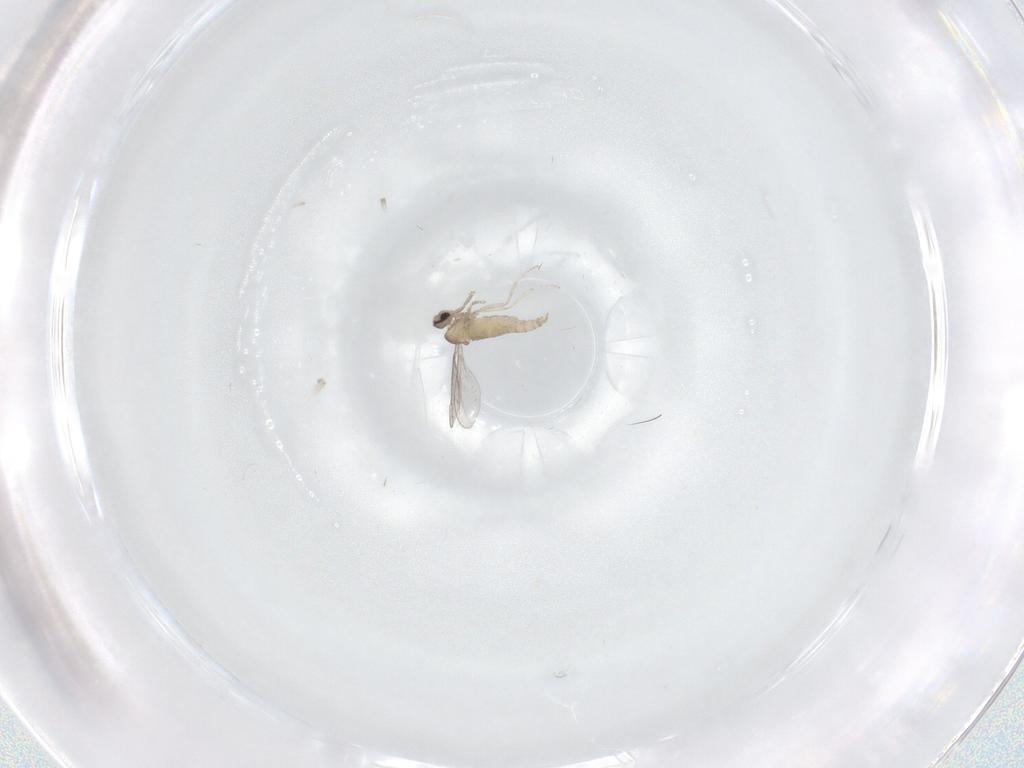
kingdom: Animalia
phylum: Arthropoda
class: Insecta
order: Diptera
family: Cecidomyiidae
